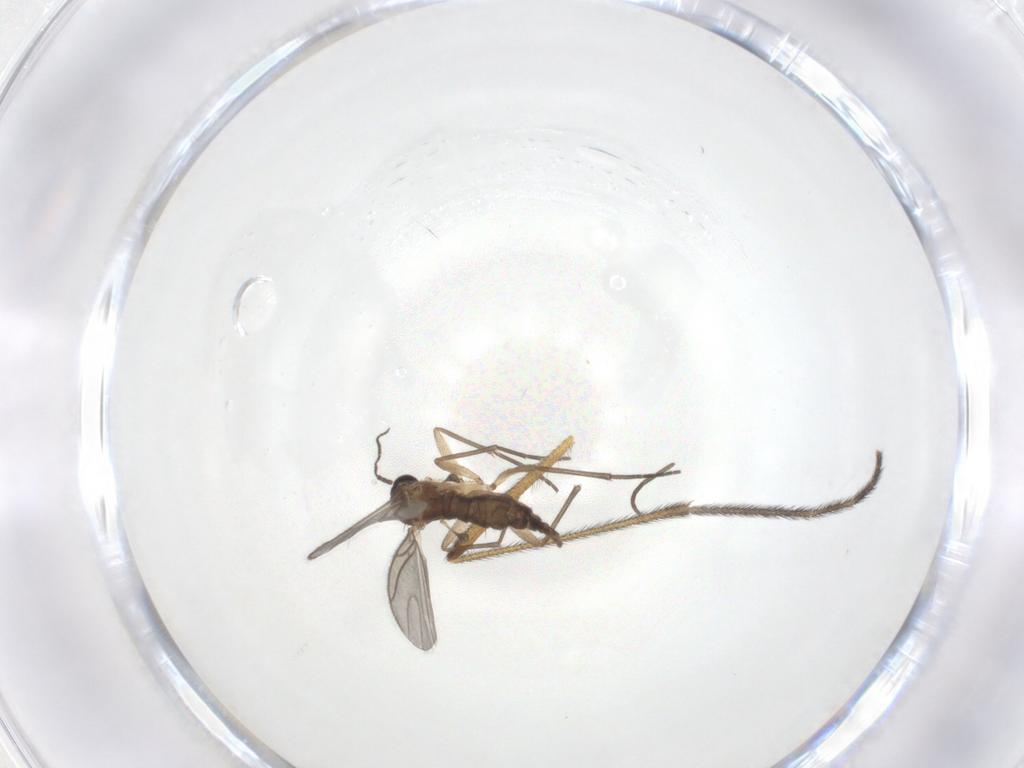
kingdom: Animalia
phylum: Arthropoda
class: Insecta
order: Diptera
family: Keroplatidae
